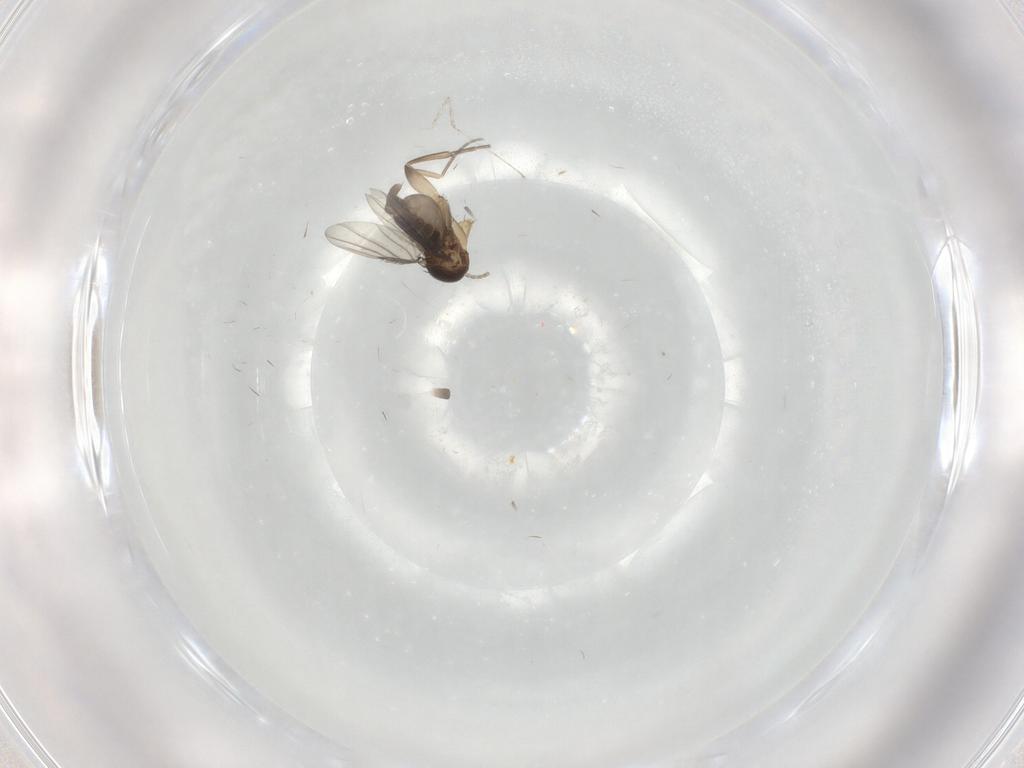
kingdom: Animalia
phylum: Arthropoda
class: Insecta
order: Diptera
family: Phoridae
